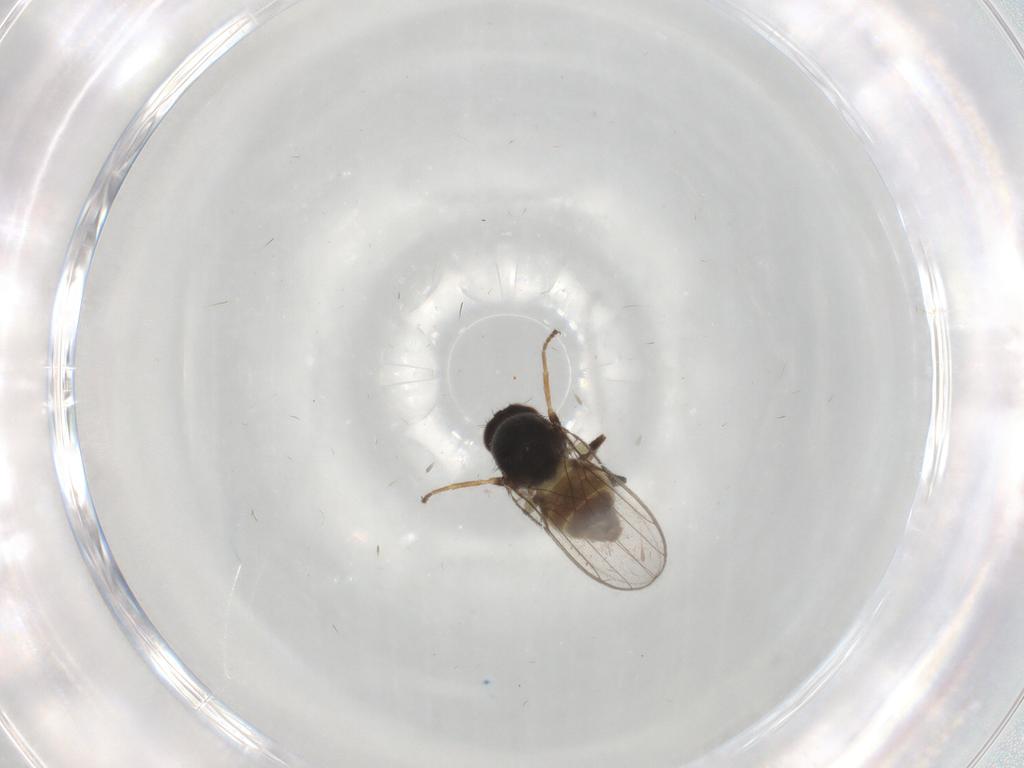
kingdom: Animalia
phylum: Arthropoda
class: Insecta
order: Diptera
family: Chloropidae
